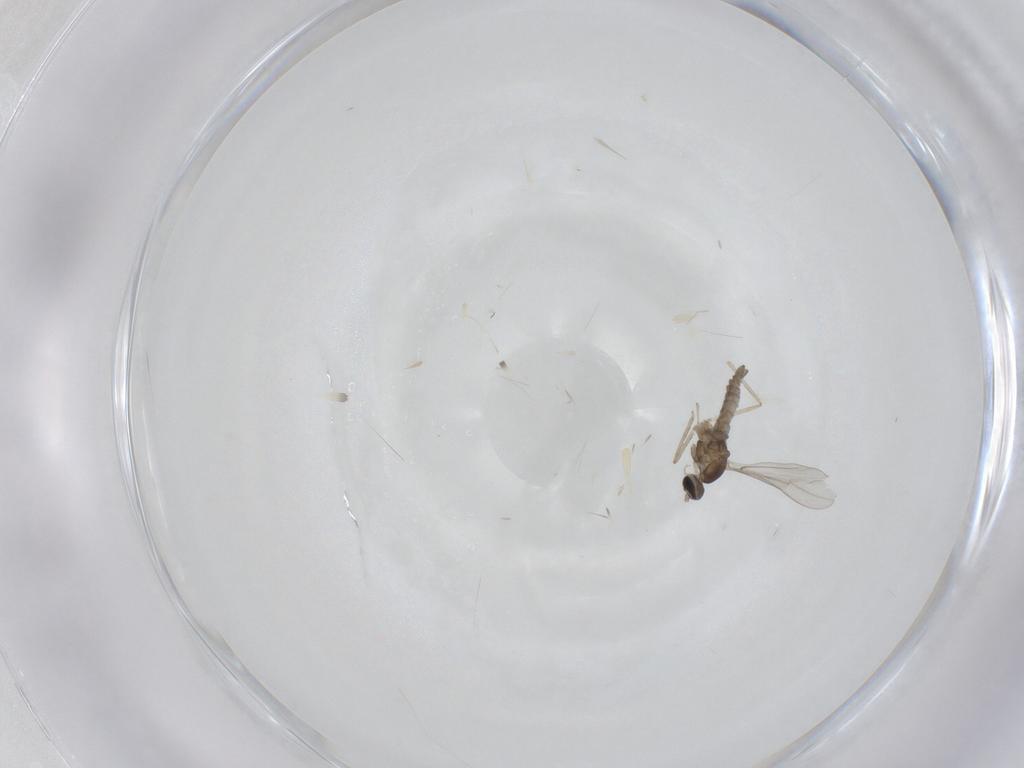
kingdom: Animalia
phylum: Arthropoda
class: Insecta
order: Diptera
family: Cecidomyiidae
